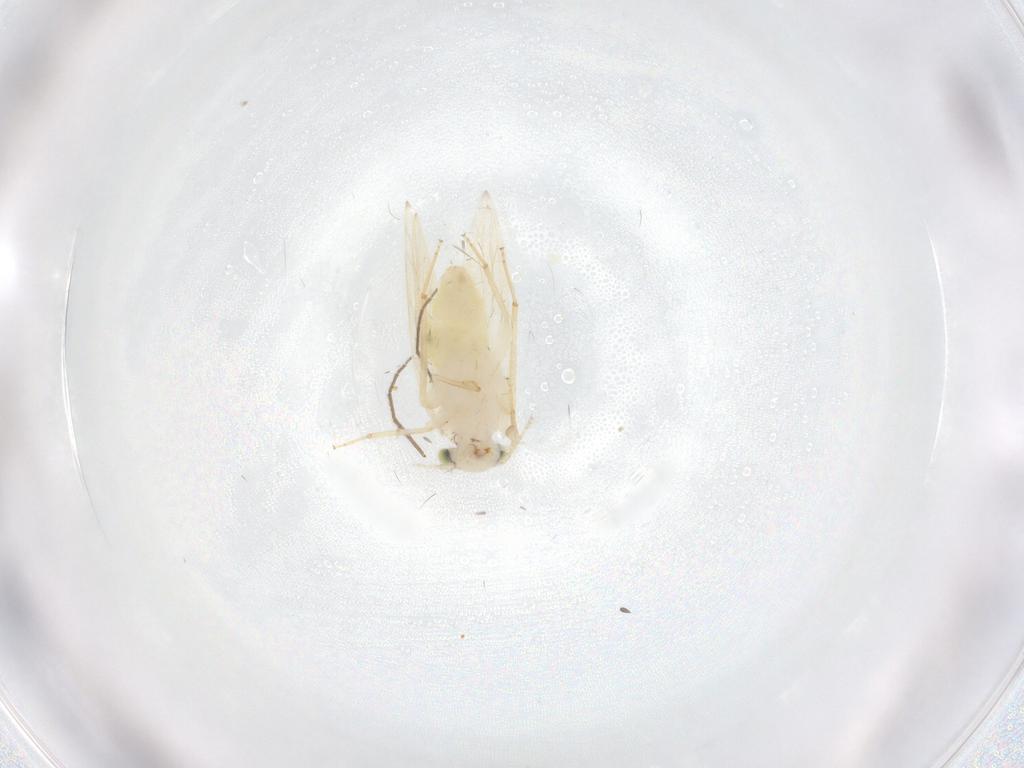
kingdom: Animalia
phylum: Arthropoda
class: Insecta
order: Psocodea
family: Lepidopsocidae
